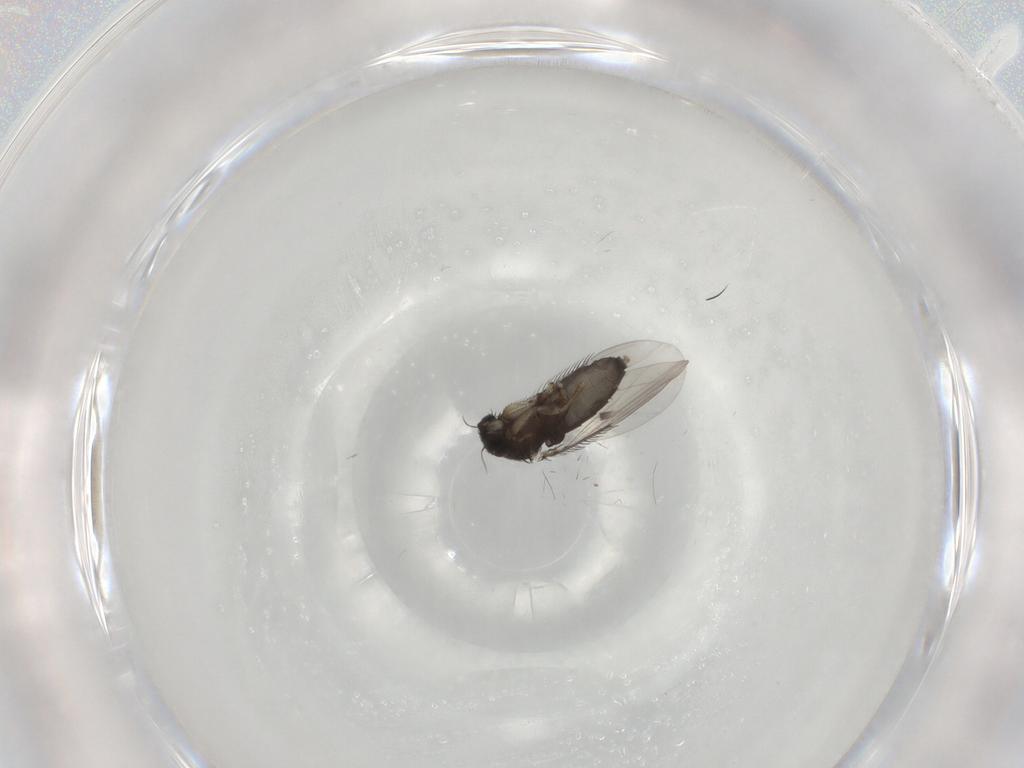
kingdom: Animalia
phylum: Arthropoda
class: Insecta
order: Diptera
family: Cecidomyiidae
